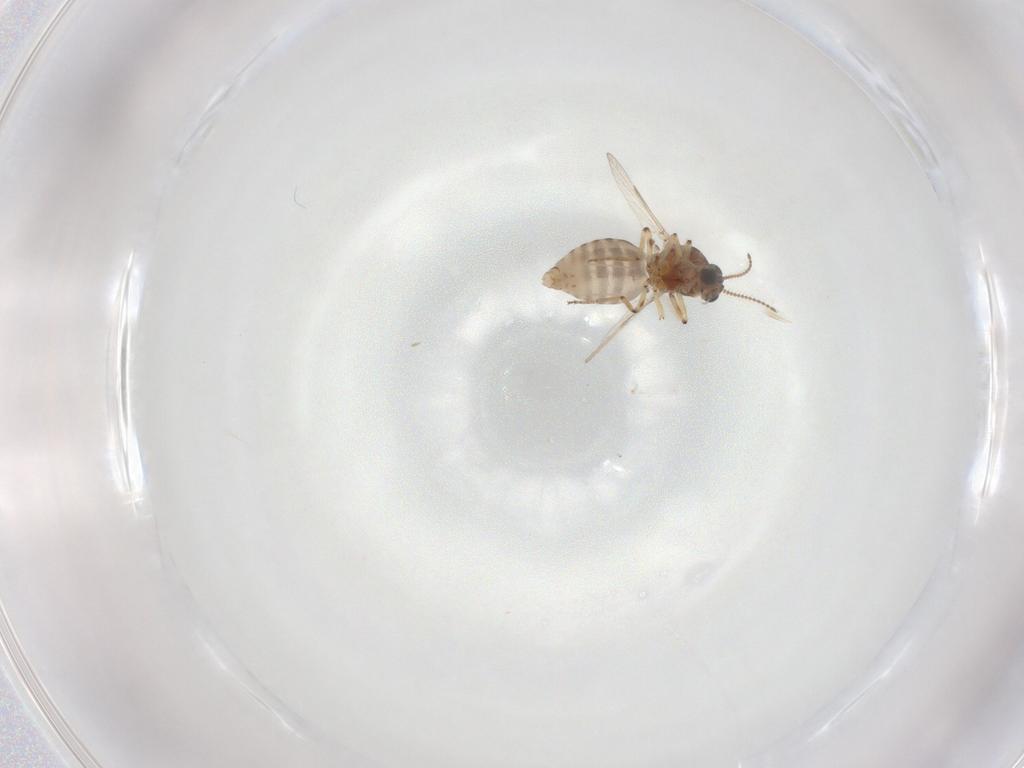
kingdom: Animalia
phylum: Arthropoda
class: Insecta
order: Diptera
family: Ceratopogonidae
